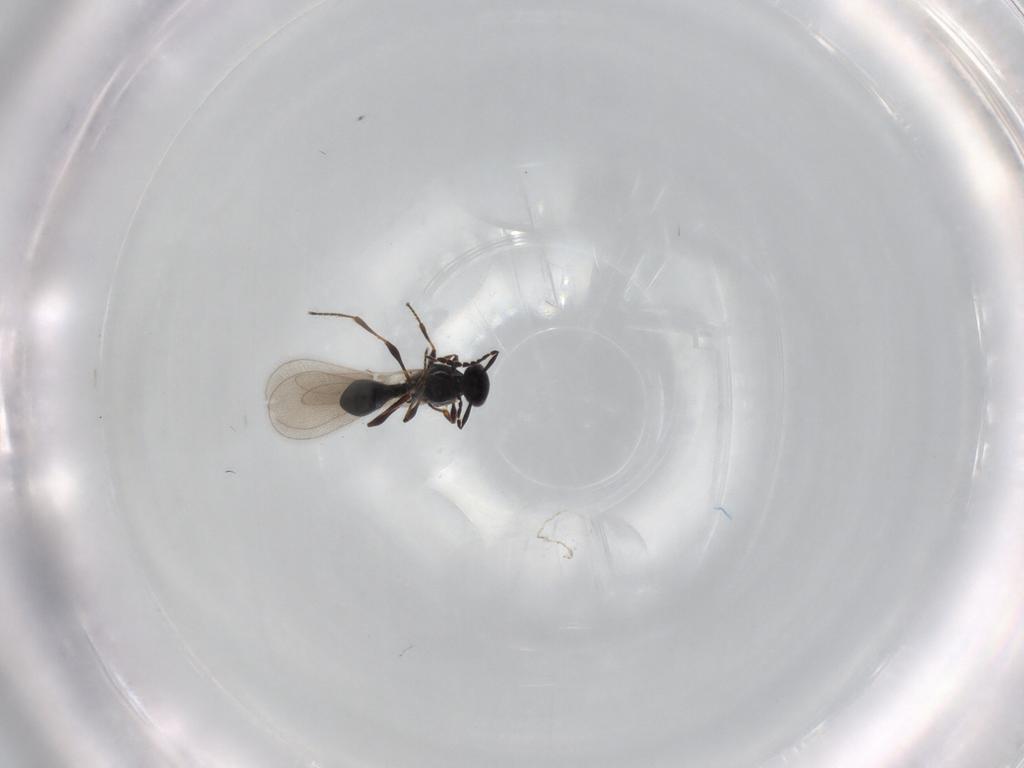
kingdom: Animalia
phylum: Arthropoda
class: Insecta
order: Hymenoptera
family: Platygastridae
